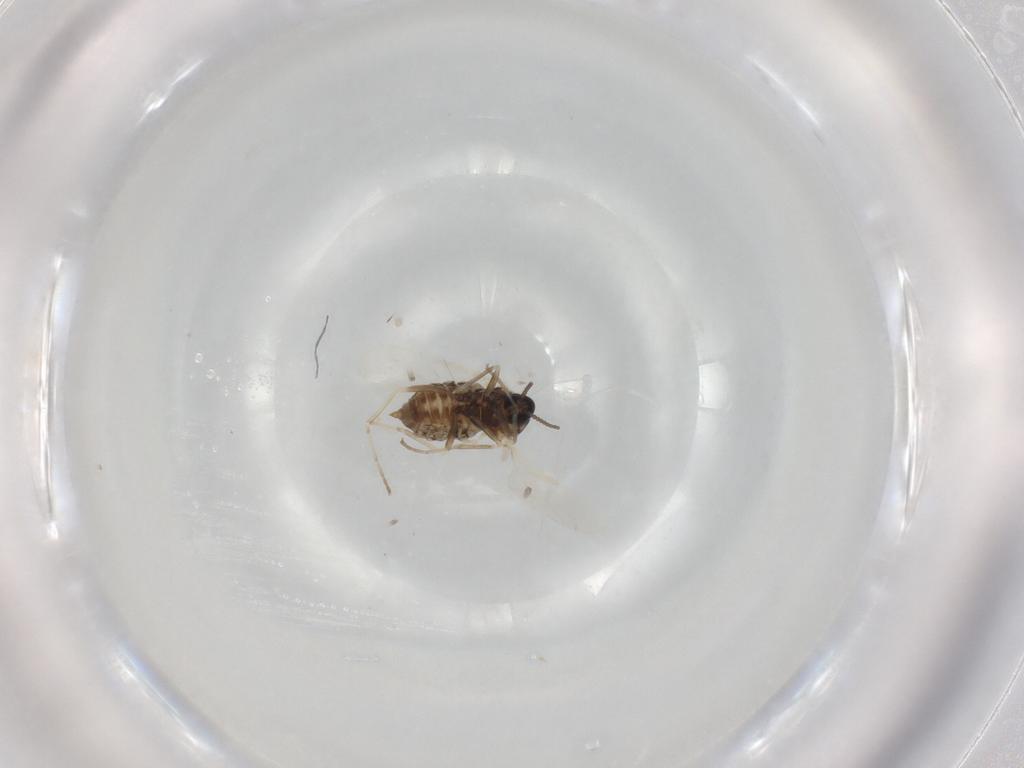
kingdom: Animalia
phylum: Arthropoda
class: Insecta
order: Diptera
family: Cecidomyiidae
